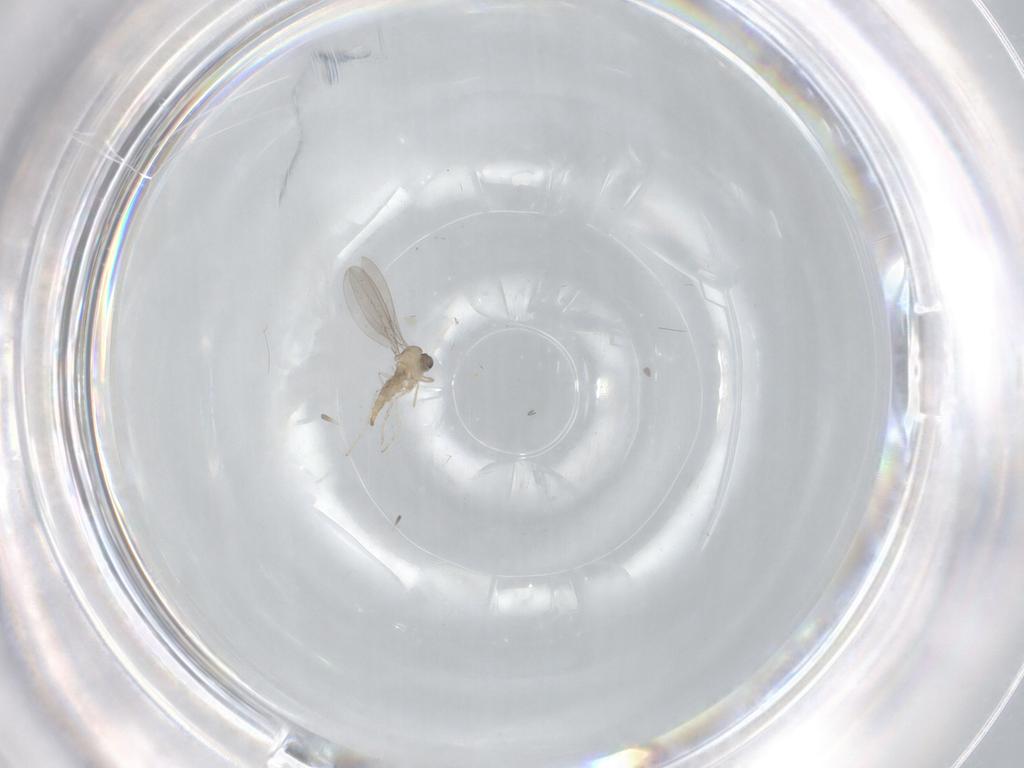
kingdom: Animalia
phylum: Arthropoda
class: Insecta
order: Diptera
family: Cecidomyiidae
